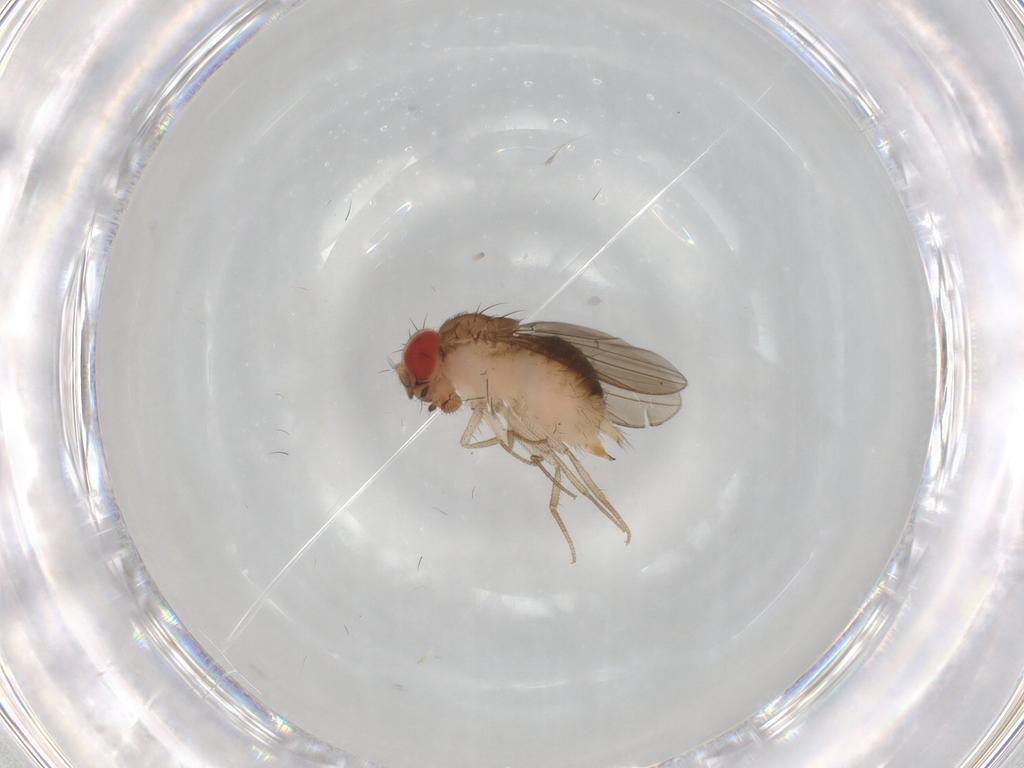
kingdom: Animalia
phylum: Arthropoda
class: Insecta
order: Diptera
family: Drosophilidae
